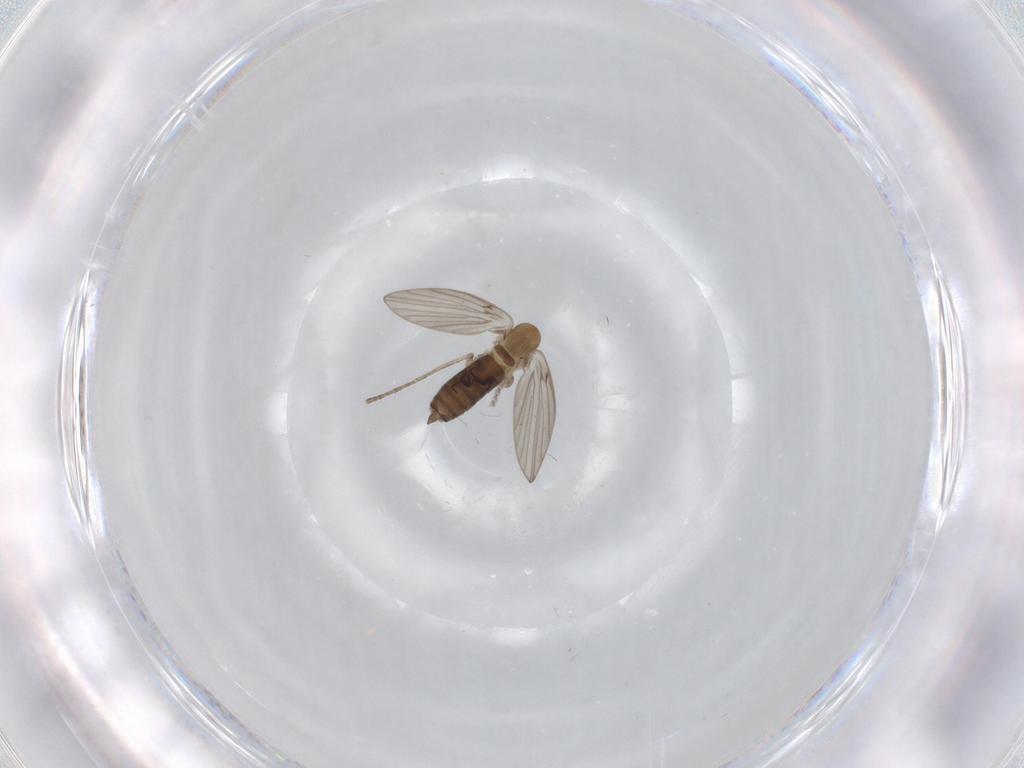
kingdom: Animalia
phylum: Arthropoda
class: Insecta
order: Diptera
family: Psychodidae
